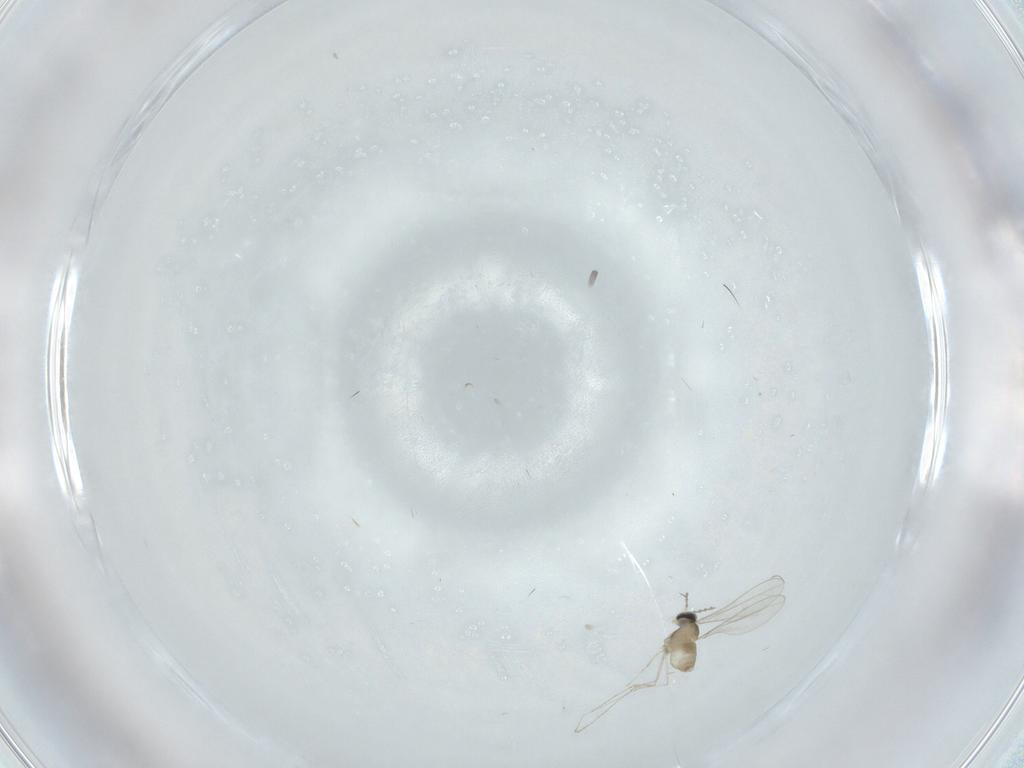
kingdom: Animalia
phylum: Arthropoda
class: Insecta
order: Diptera
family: Cecidomyiidae
